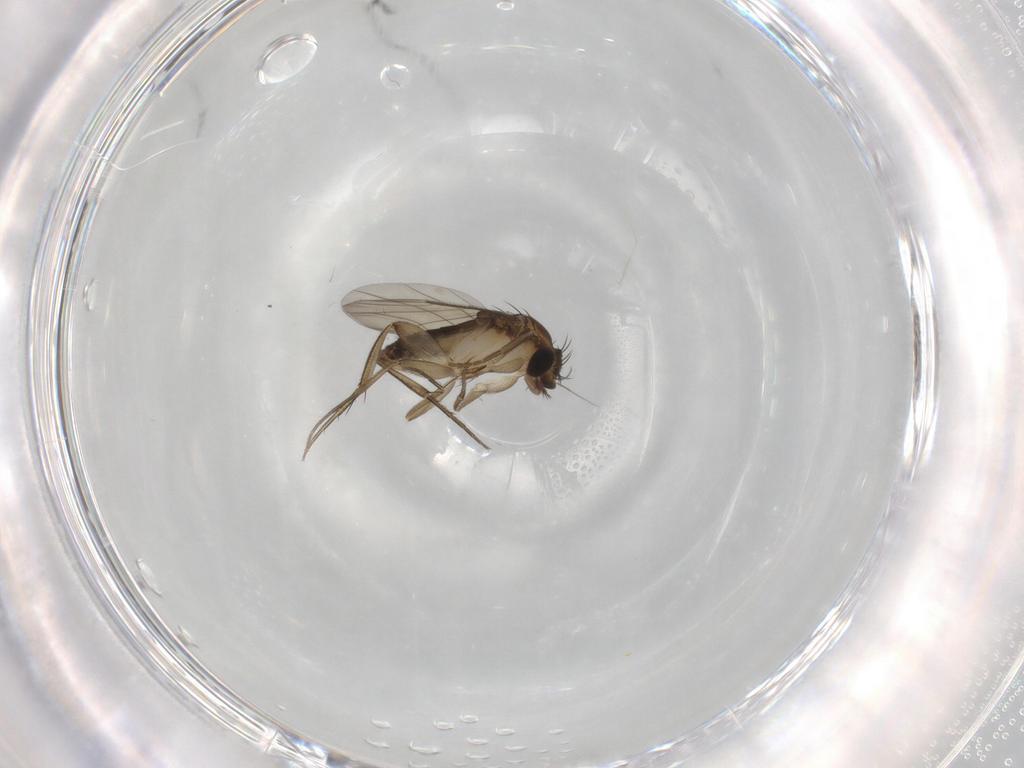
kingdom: Animalia
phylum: Arthropoda
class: Insecta
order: Diptera
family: Phoridae
